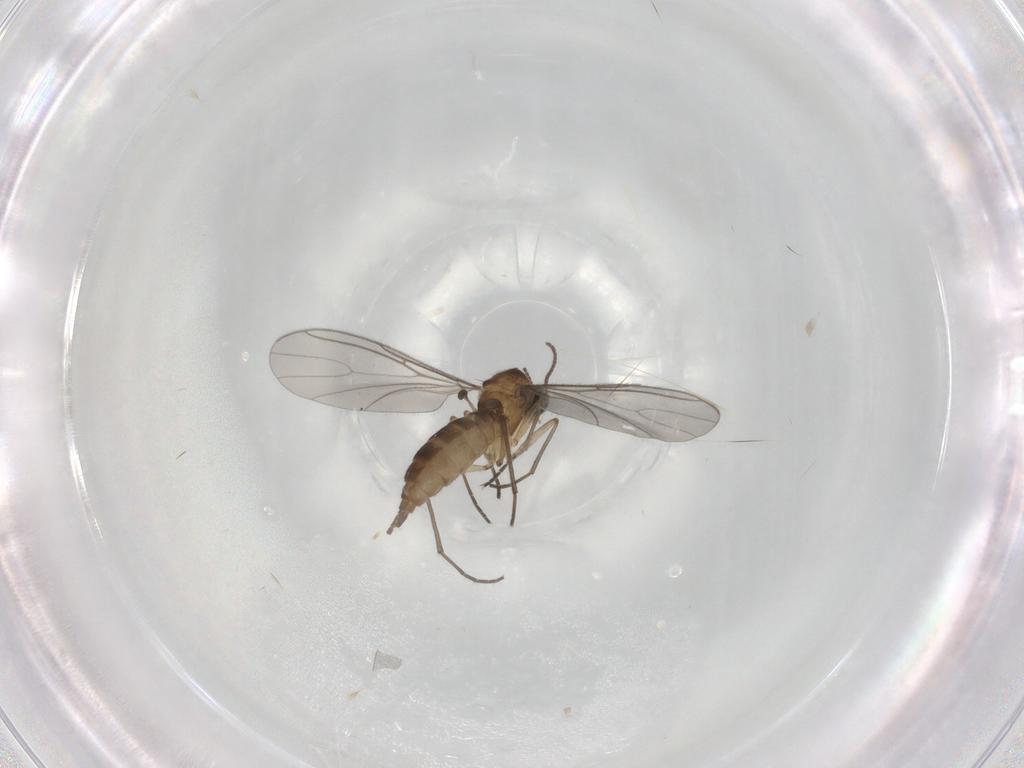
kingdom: Animalia
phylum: Arthropoda
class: Insecta
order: Diptera
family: Sciaridae
